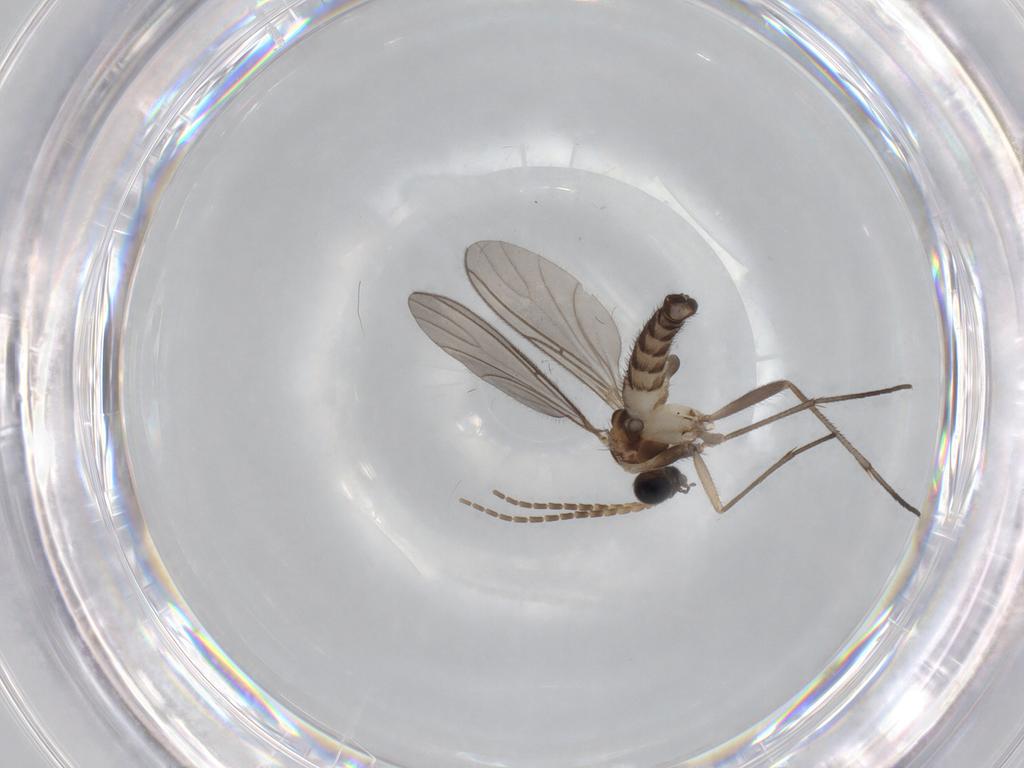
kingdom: Animalia
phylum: Arthropoda
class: Insecta
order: Diptera
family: Sciaridae
